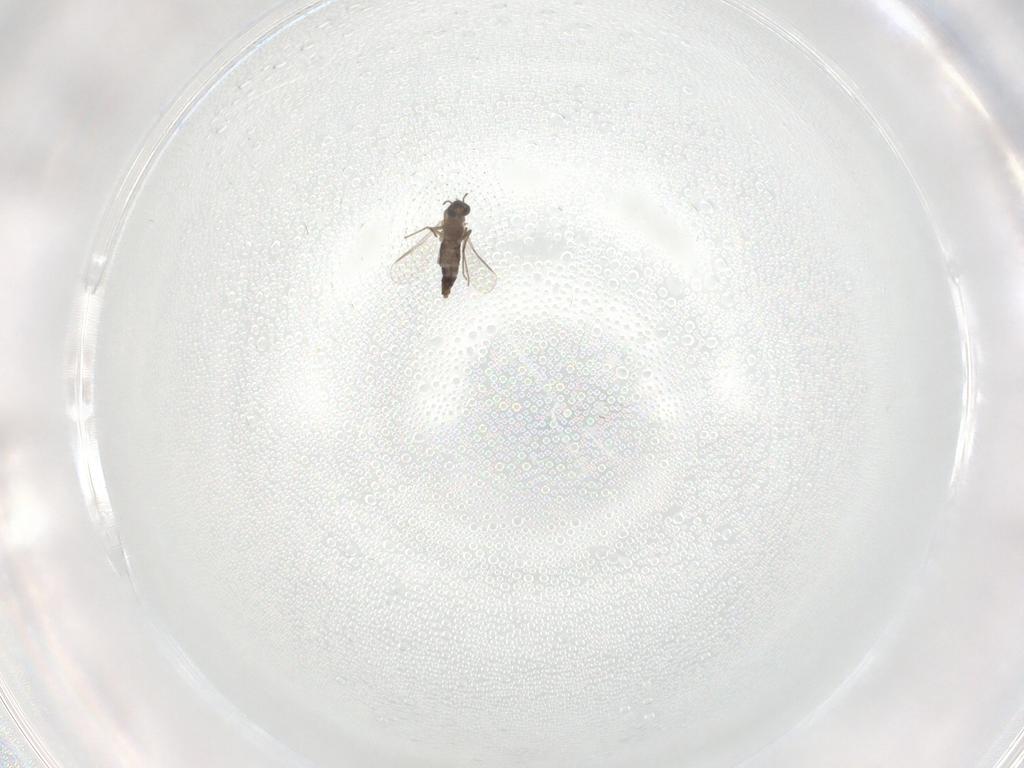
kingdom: Animalia
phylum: Arthropoda
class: Insecta
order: Diptera
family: Chironomidae
